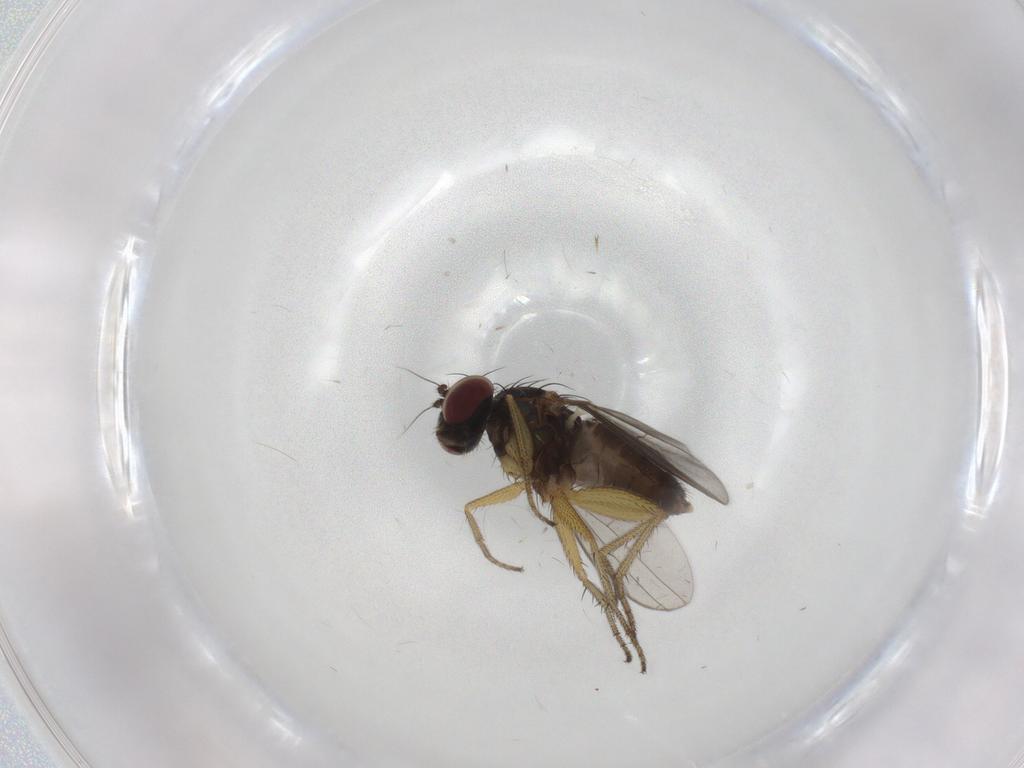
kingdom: Animalia
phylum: Arthropoda
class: Insecta
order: Diptera
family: Dolichopodidae
